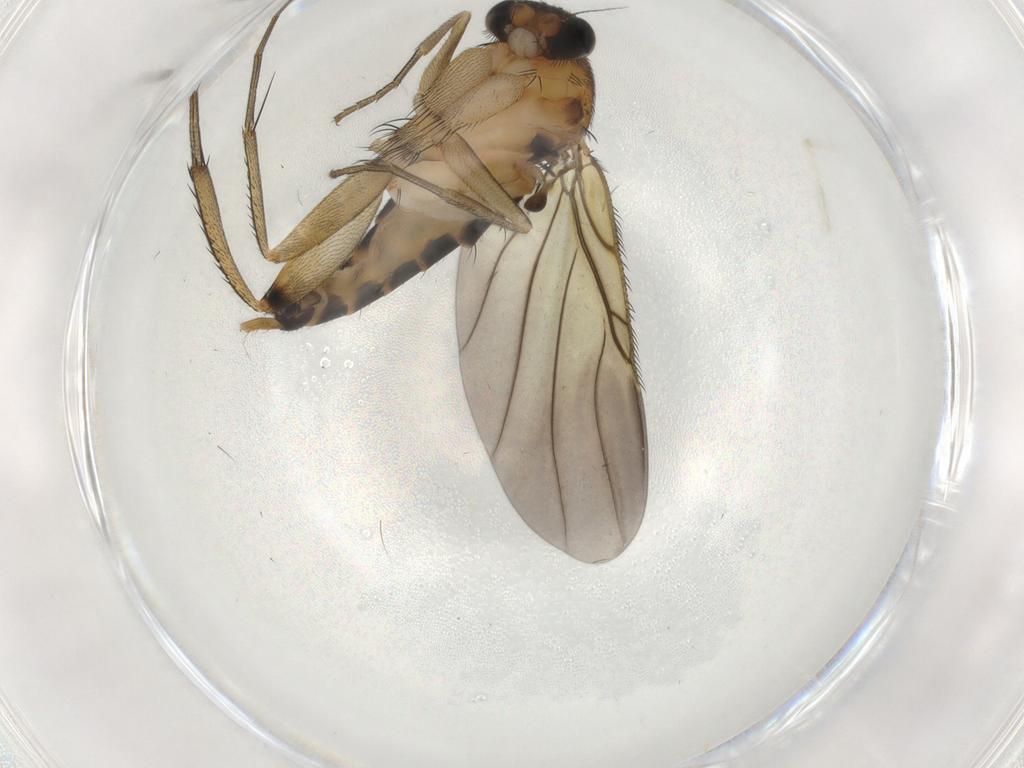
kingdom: Animalia
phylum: Arthropoda
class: Insecta
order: Diptera
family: Phoridae
